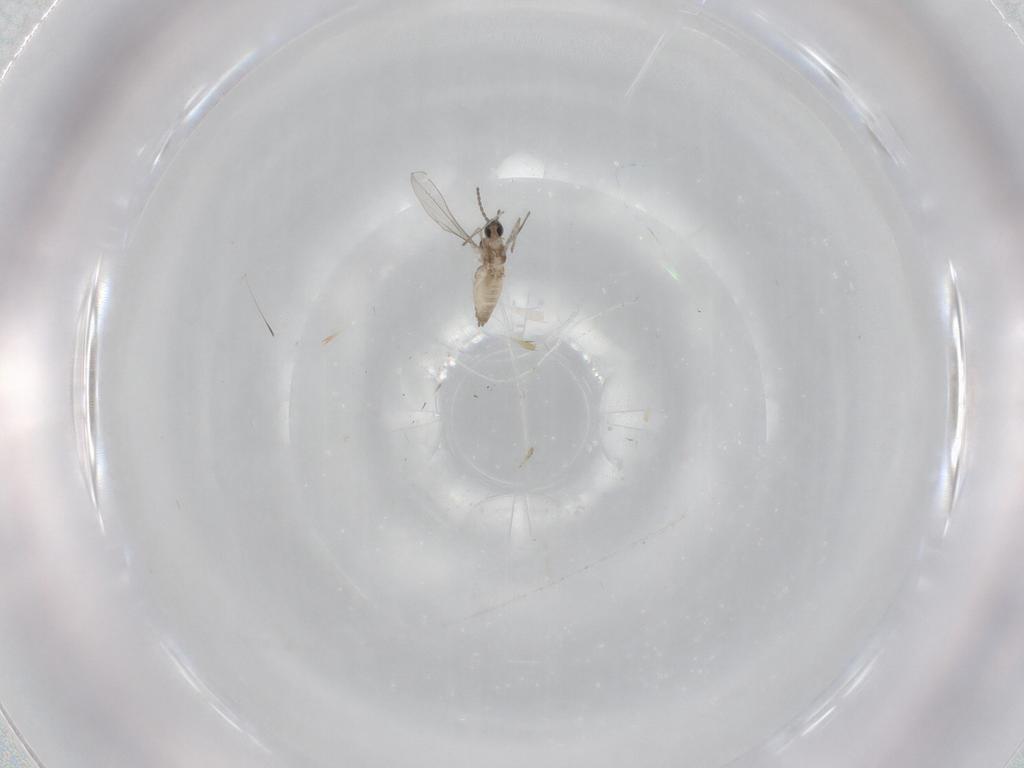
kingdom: Animalia
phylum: Arthropoda
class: Insecta
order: Diptera
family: Cecidomyiidae
